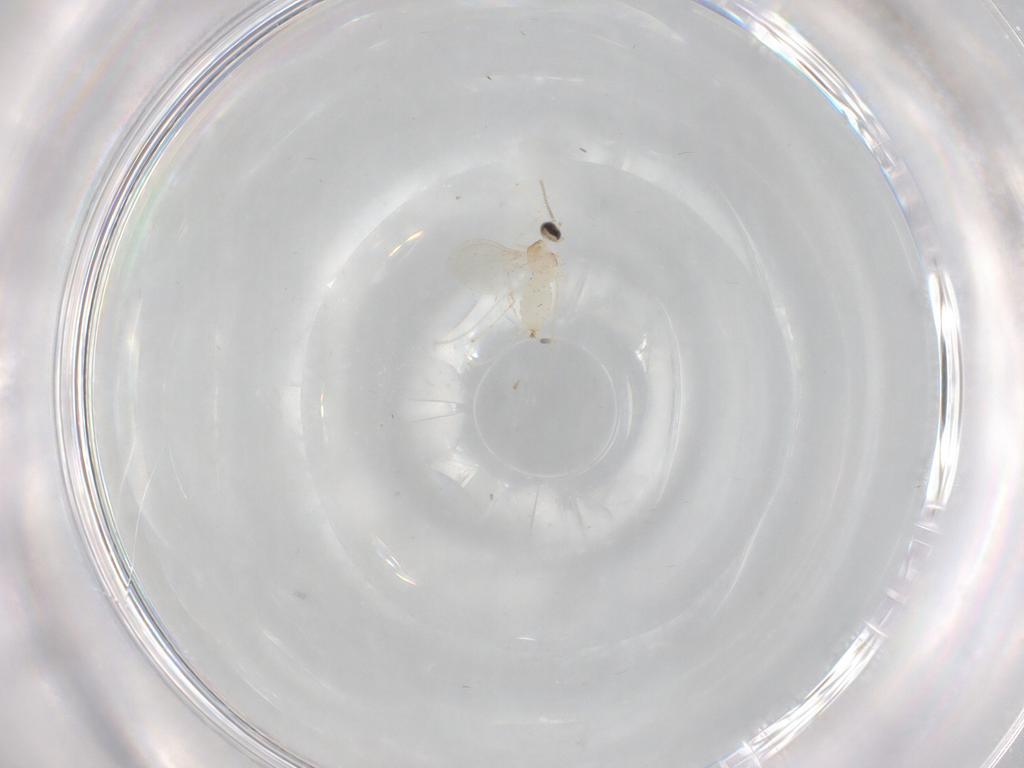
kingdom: Animalia
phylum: Arthropoda
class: Insecta
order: Diptera
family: Cecidomyiidae
